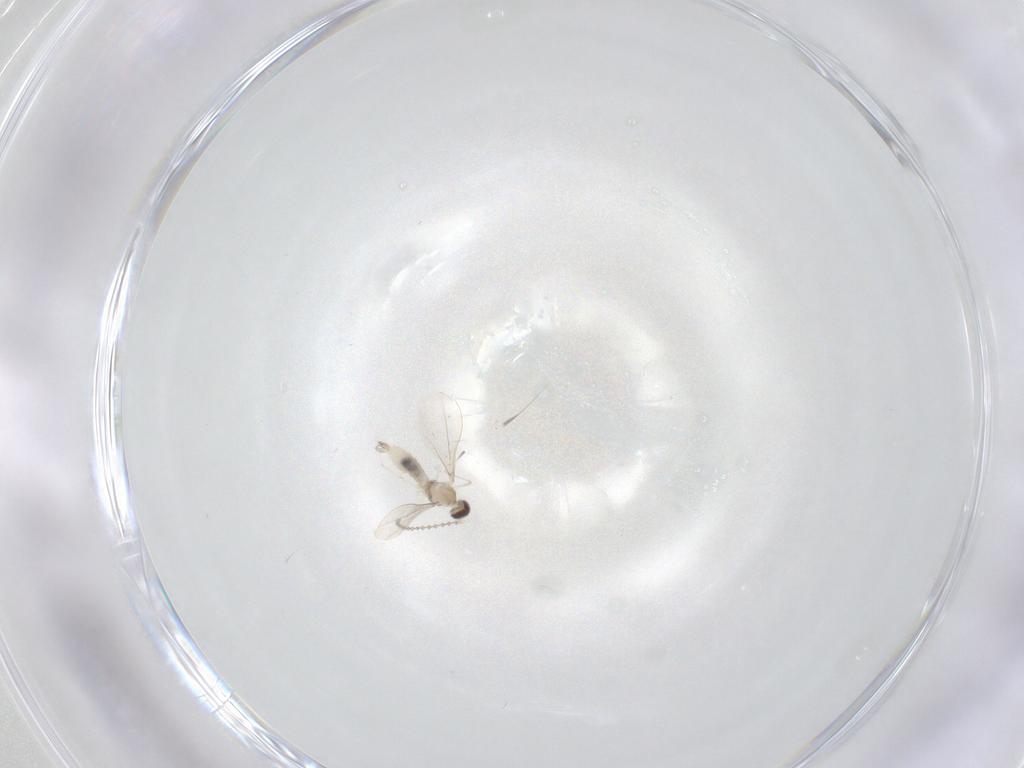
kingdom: Animalia
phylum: Arthropoda
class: Insecta
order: Diptera
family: Cecidomyiidae
